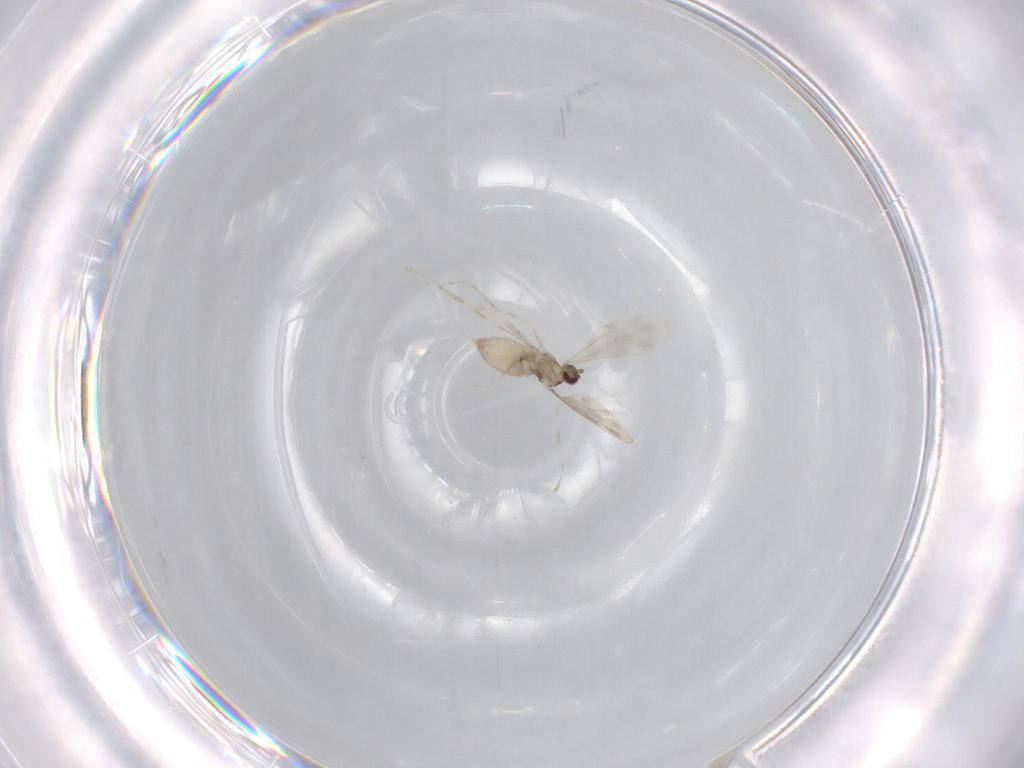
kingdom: Animalia
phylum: Arthropoda
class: Insecta
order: Diptera
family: Cecidomyiidae
